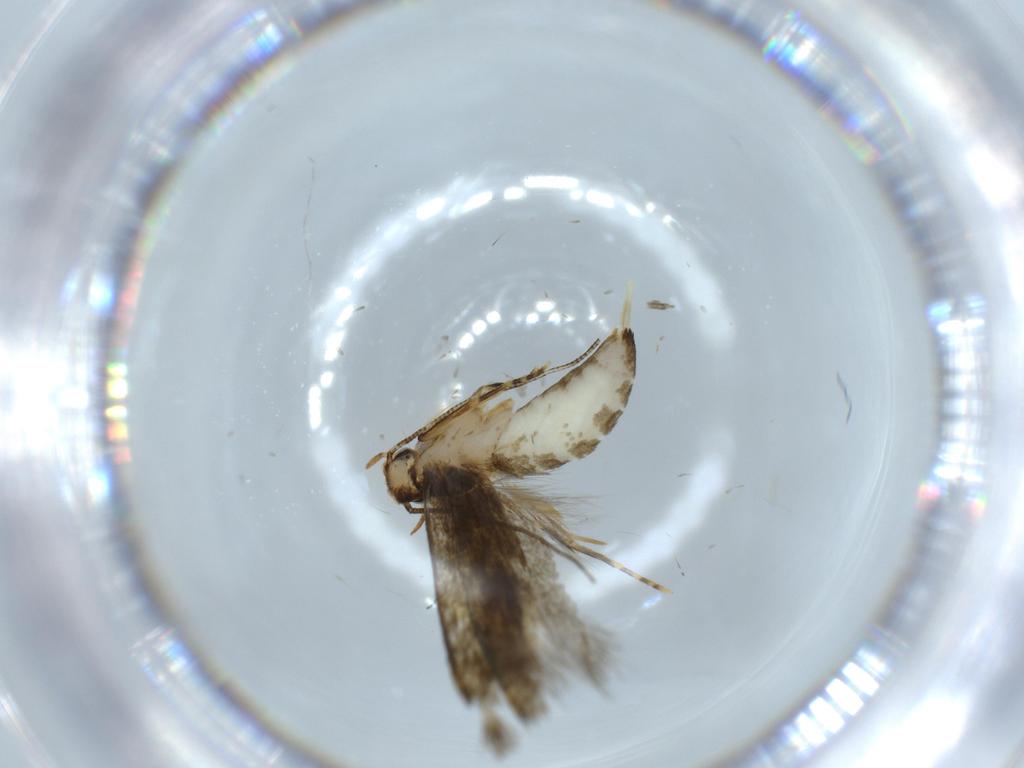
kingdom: Animalia
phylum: Arthropoda
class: Insecta
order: Lepidoptera
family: Tineidae
